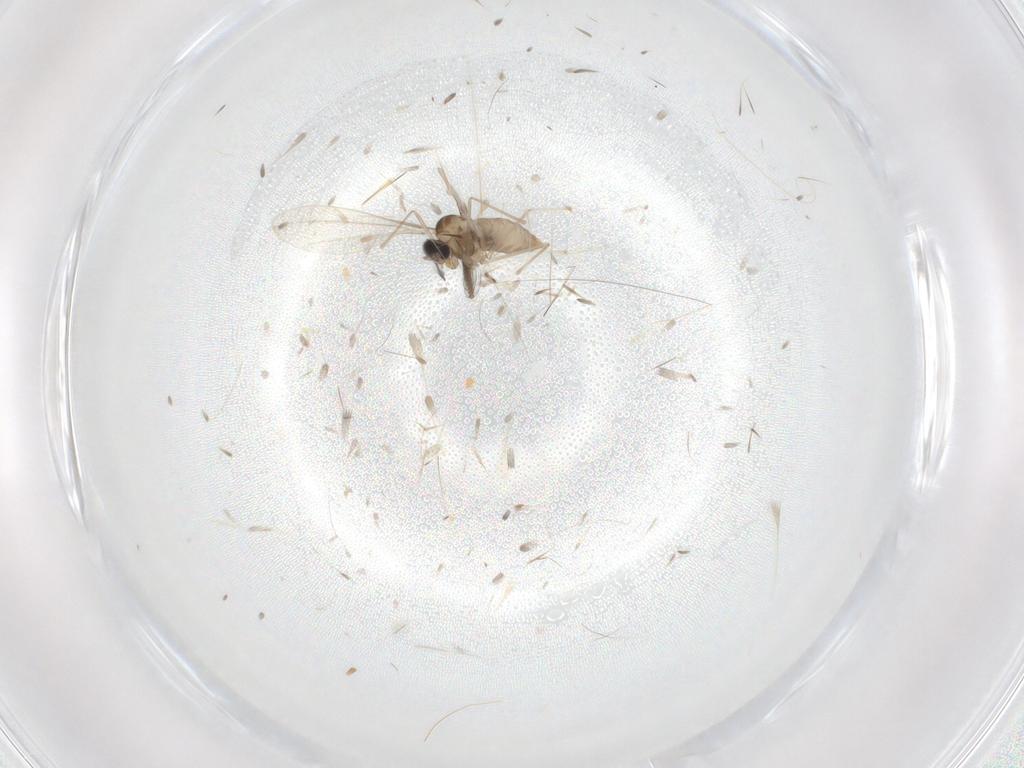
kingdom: Animalia
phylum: Arthropoda
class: Insecta
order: Diptera
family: Ceratopogonidae
